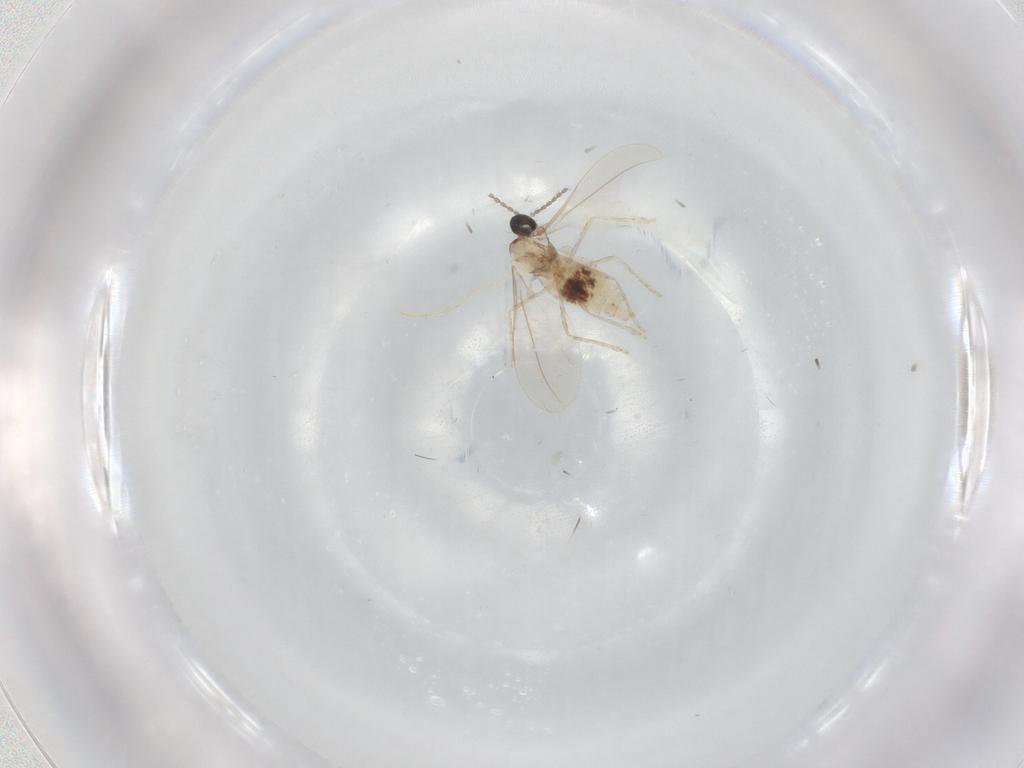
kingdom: Animalia
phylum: Arthropoda
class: Insecta
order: Diptera
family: Cecidomyiidae
